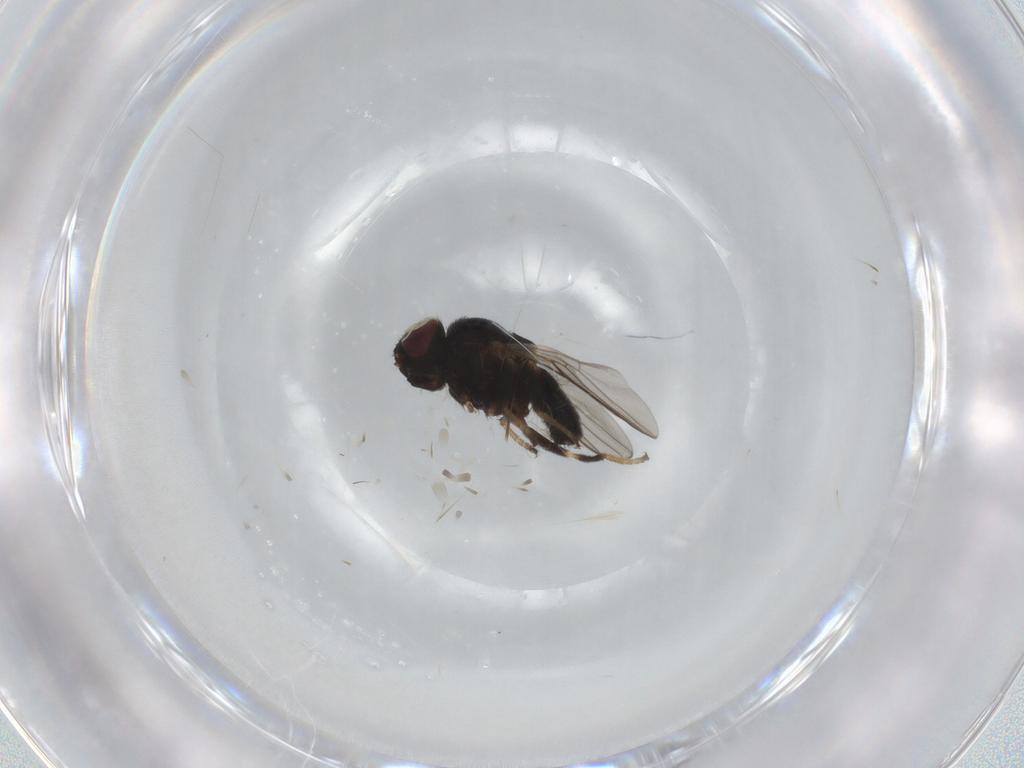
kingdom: Animalia
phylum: Arthropoda
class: Insecta
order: Diptera
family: Chloropidae
